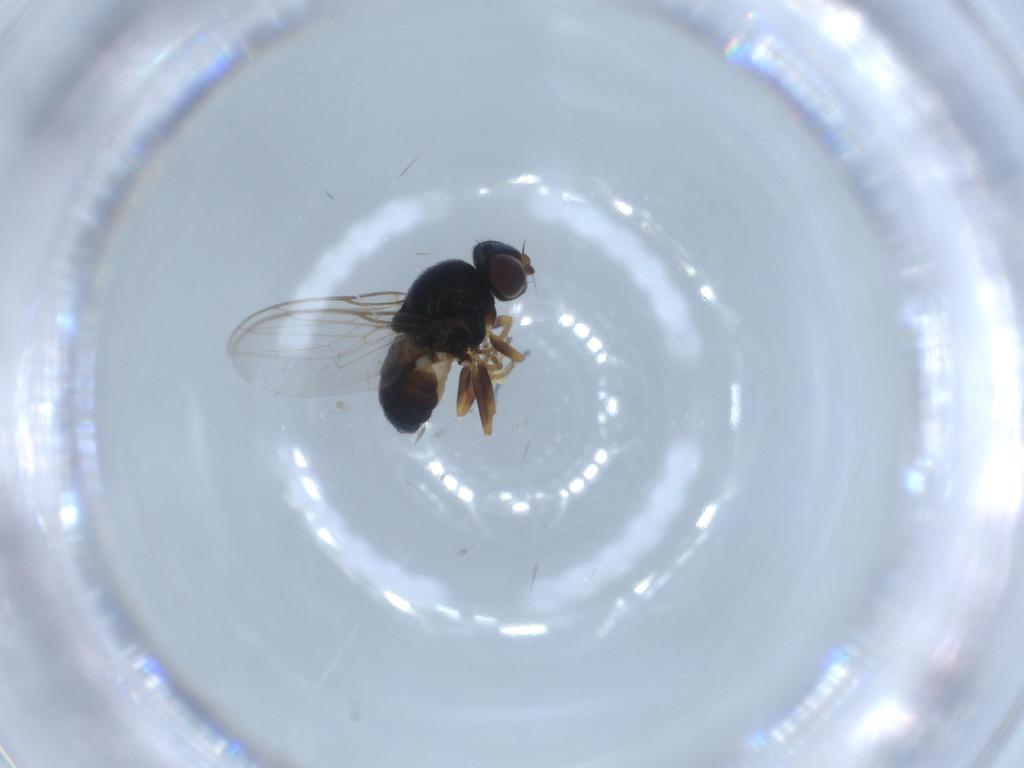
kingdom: Animalia
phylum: Arthropoda
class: Insecta
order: Diptera
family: Chloropidae
